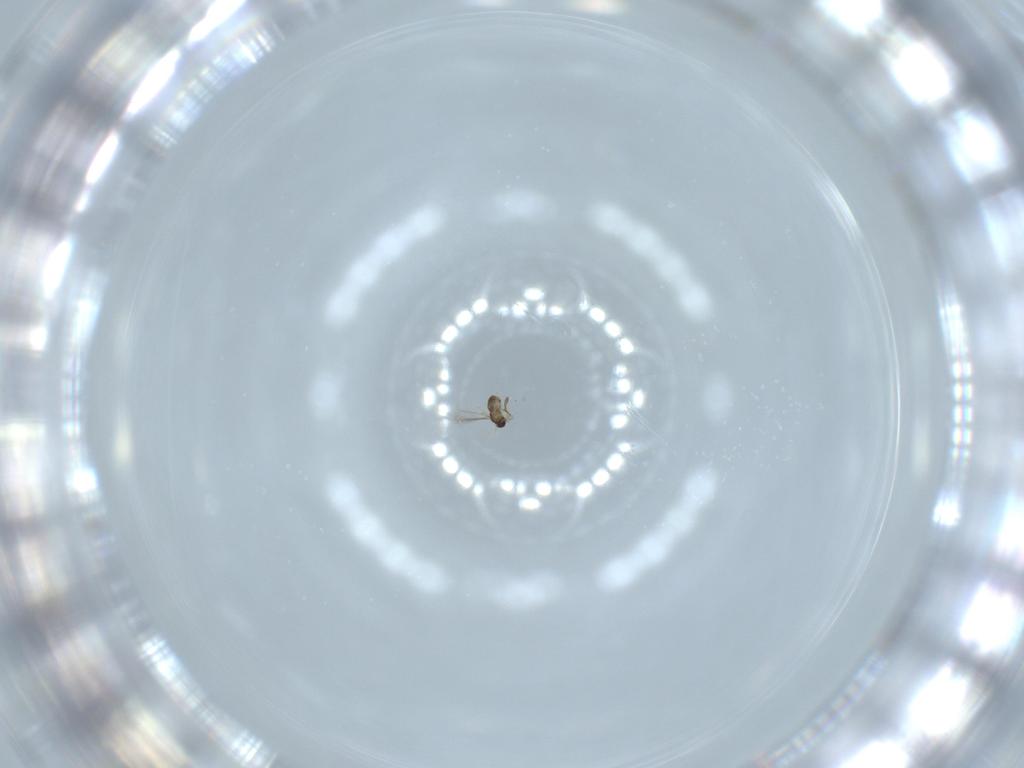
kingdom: Animalia
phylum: Arthropoda
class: Insecta
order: Hymenoptera
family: Mymaridae
